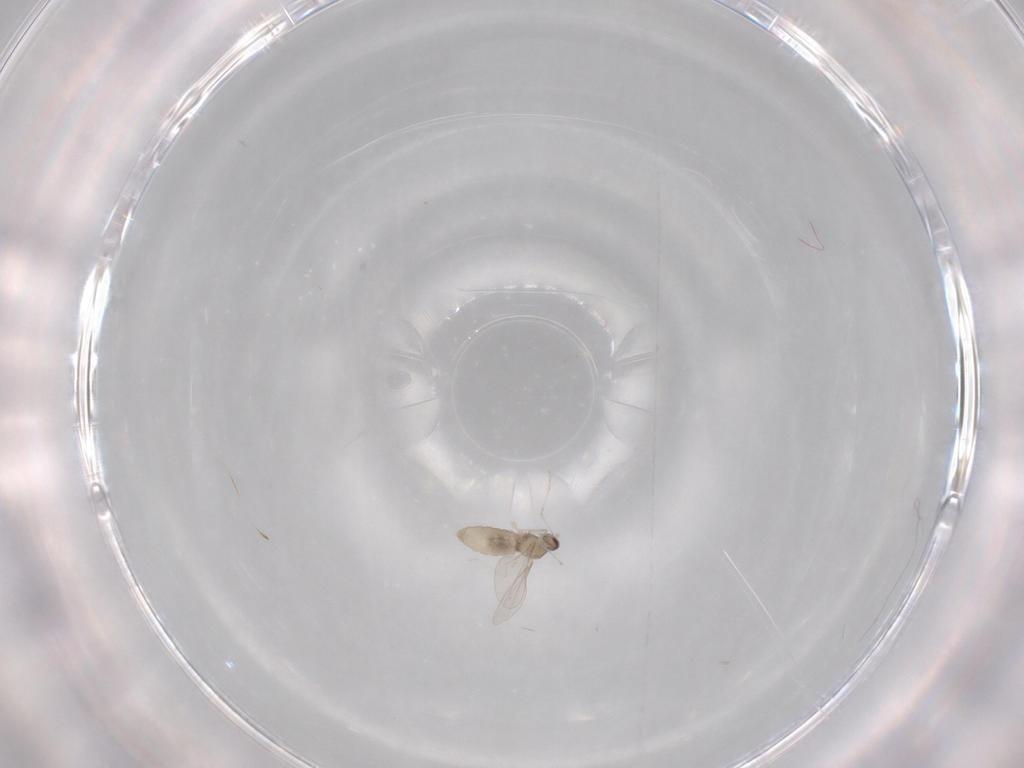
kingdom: Animalia
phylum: Arthropoda
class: Insecta
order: Diptera
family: Cecidomyiidae
